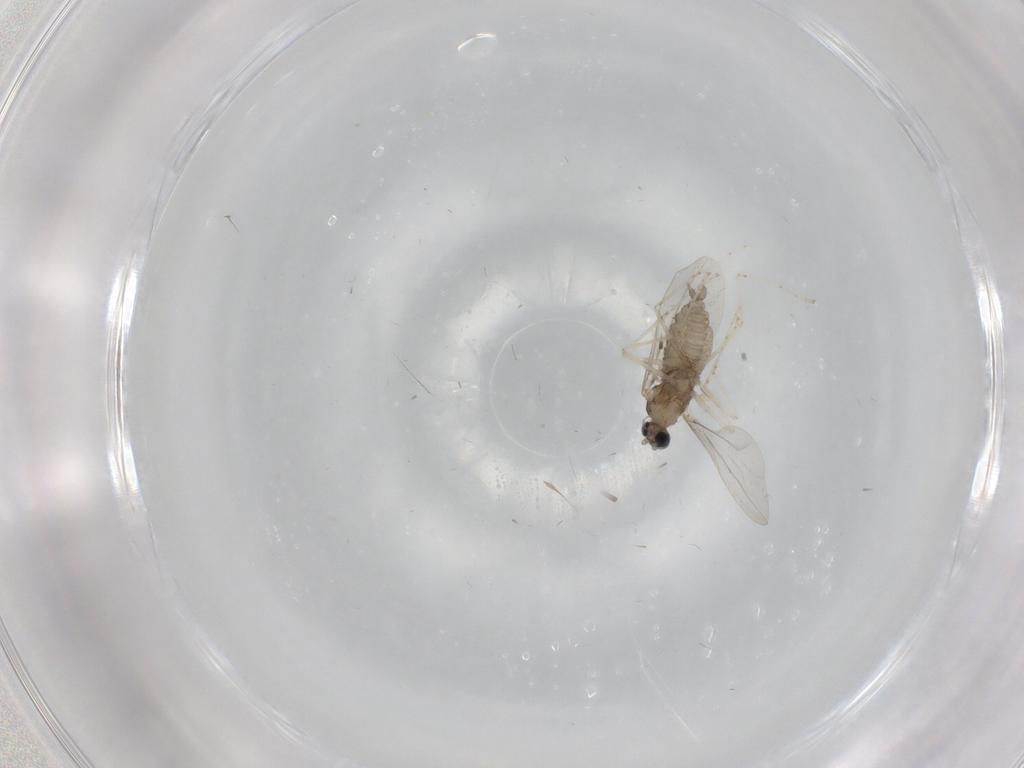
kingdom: Animalia
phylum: Arthropoda
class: Insecta
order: Diptera
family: Cecidomyiidae
